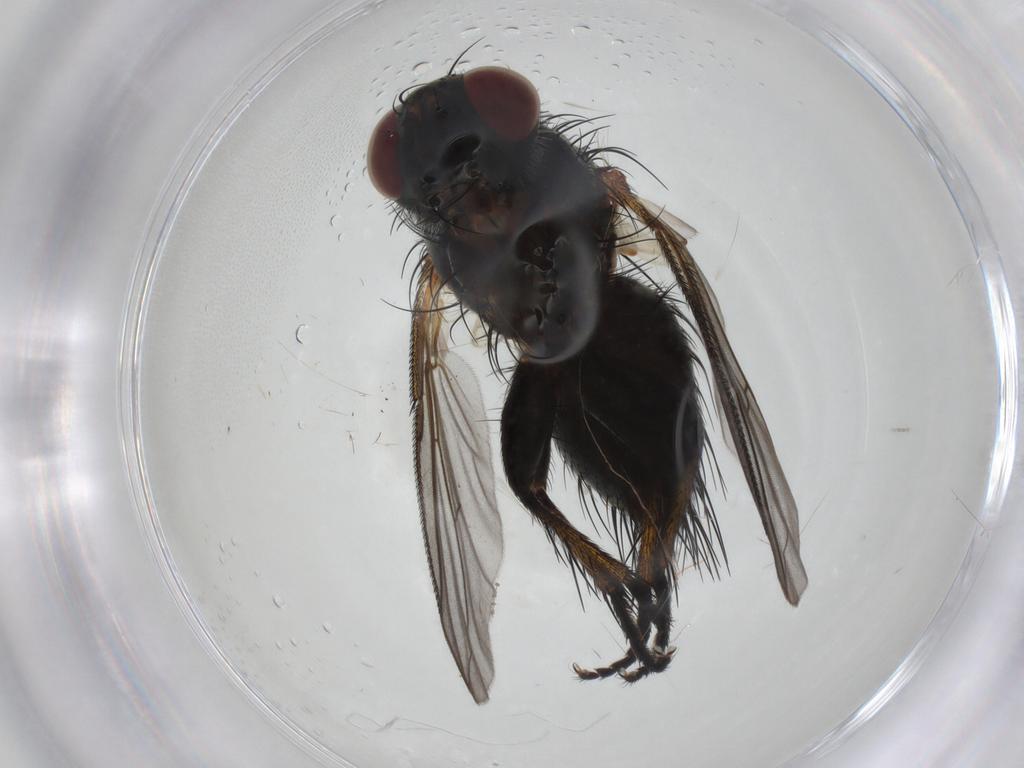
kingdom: Animalia
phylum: Arthropoda
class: Insecta
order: Diptera
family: Tachinidae
